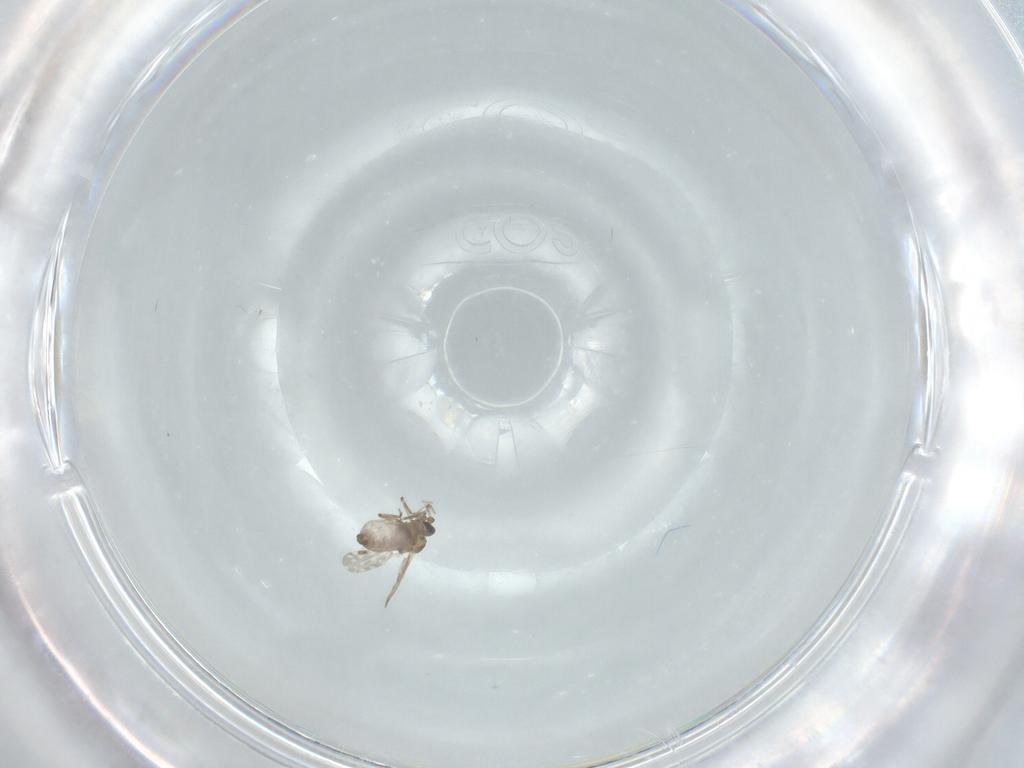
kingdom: Animalia
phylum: Arthropoda
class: Insecta
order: Diptera
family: Ceratopogonidae
